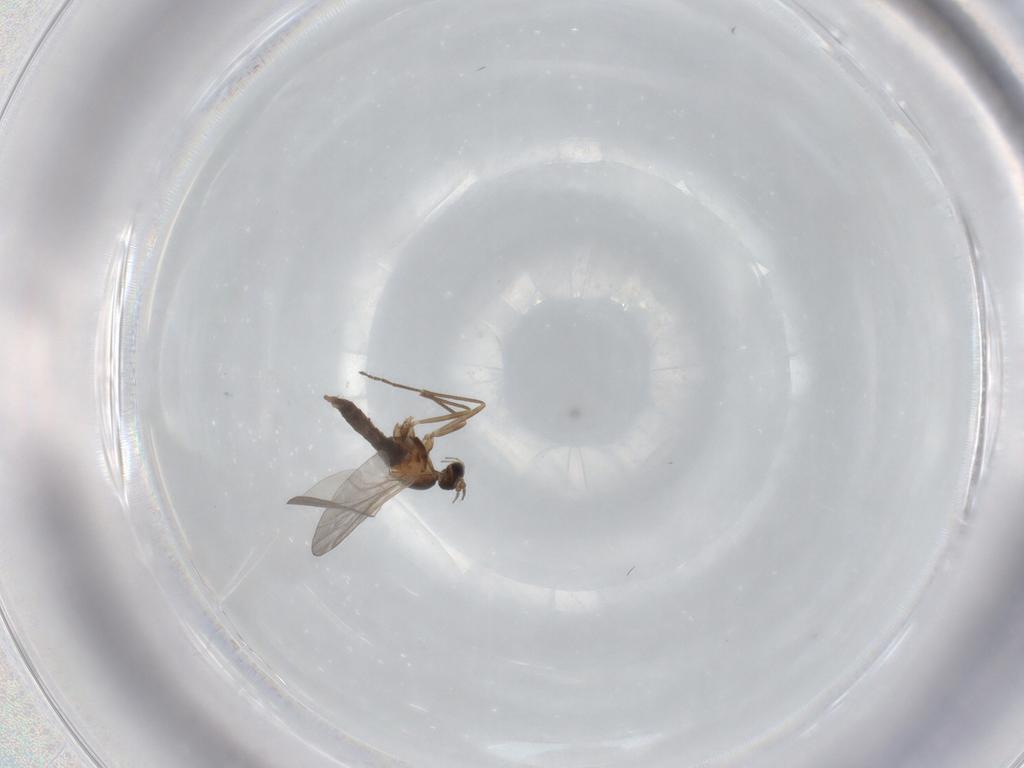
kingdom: Animalia
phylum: Arthropoda
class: Insecta
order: Diptera
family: Cecidomyiidae
